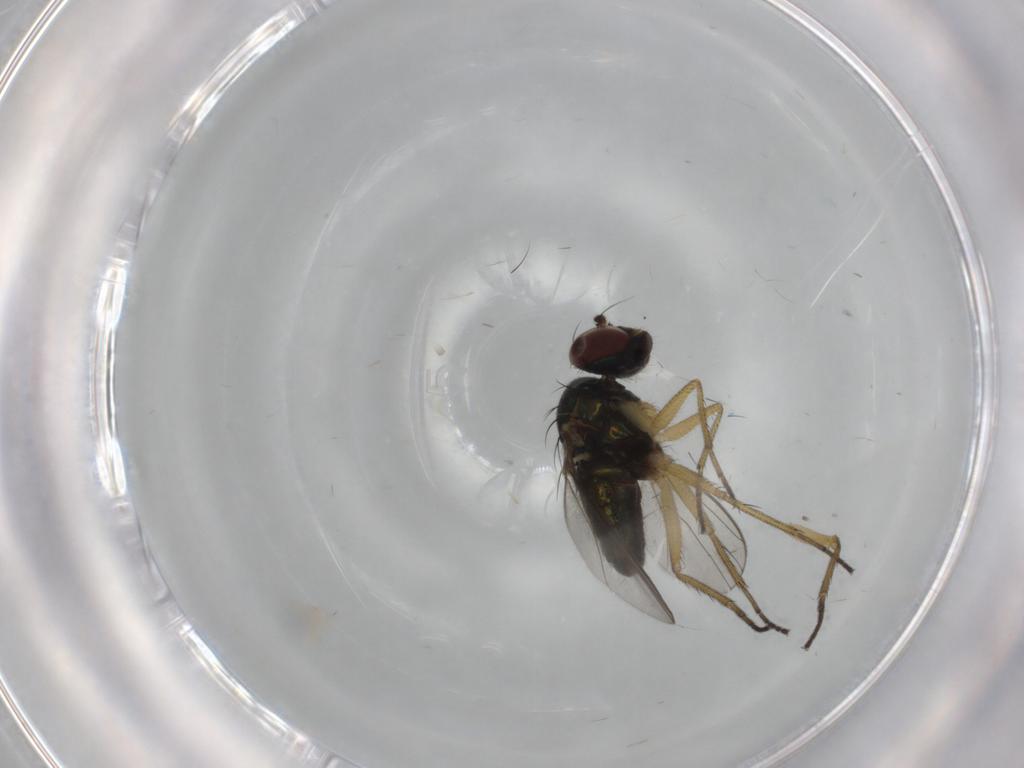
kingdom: Animalia
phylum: Arthropoda
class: Insecta
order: Diptera
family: Dolichopodidae
